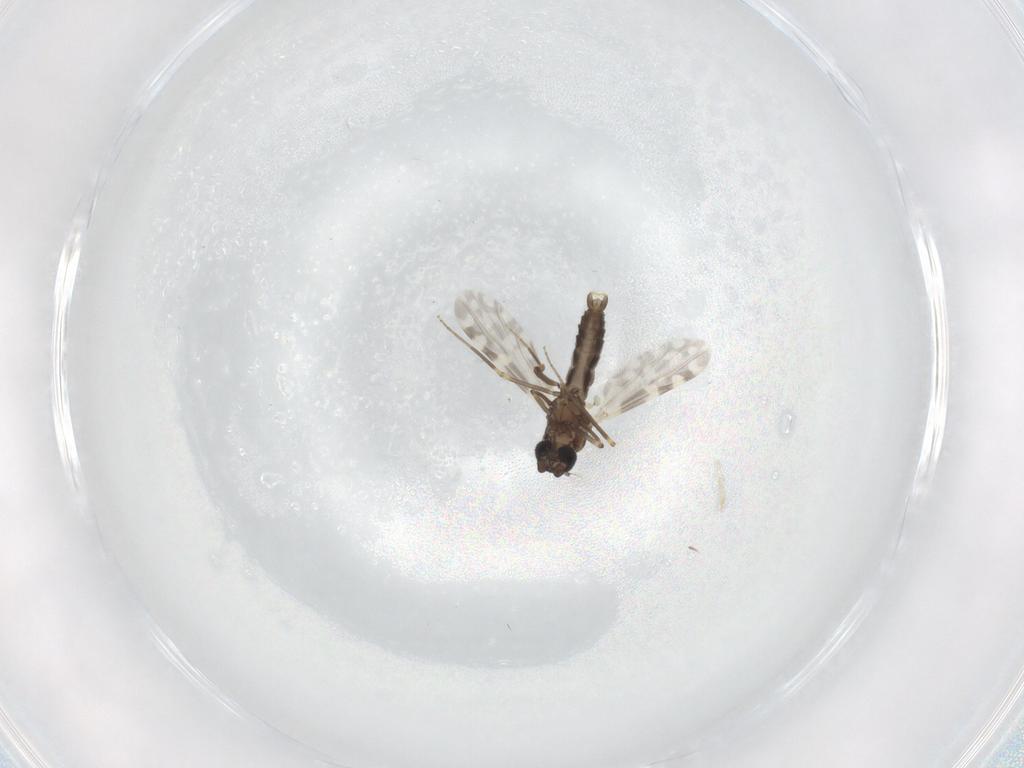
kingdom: Animalia
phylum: Arthropoda
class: Insecta
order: Diptera
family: Ceratopogonidae
